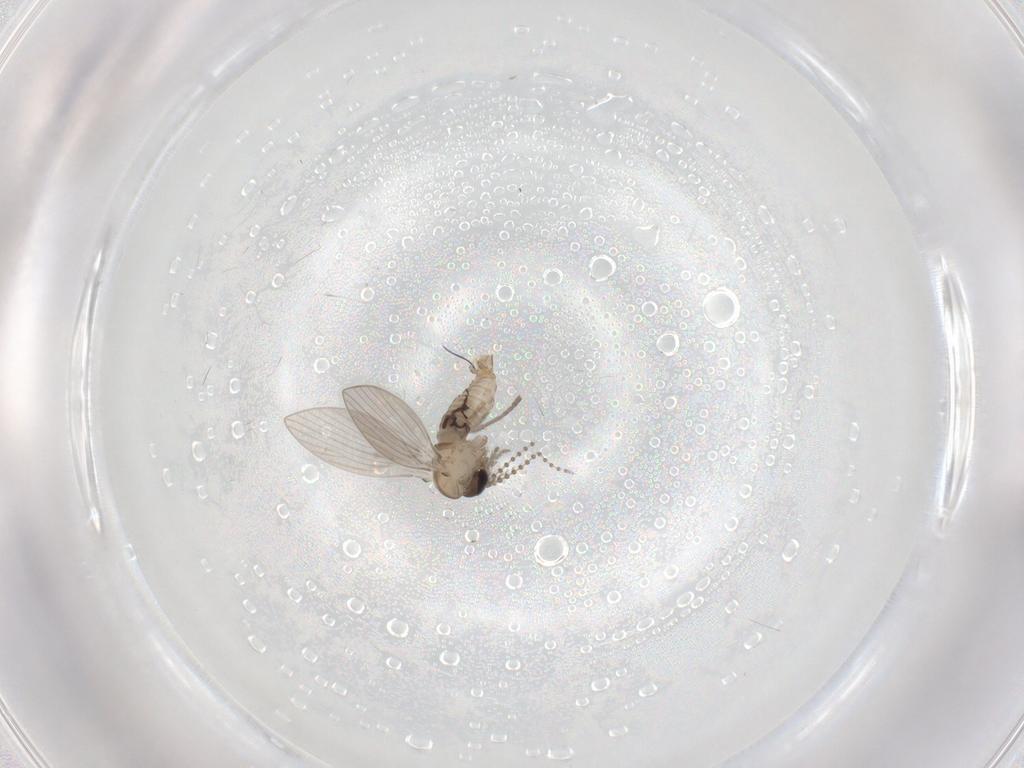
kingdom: Animalia
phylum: Arthropoda
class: Insecta
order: Diptera
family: Psychodidae
